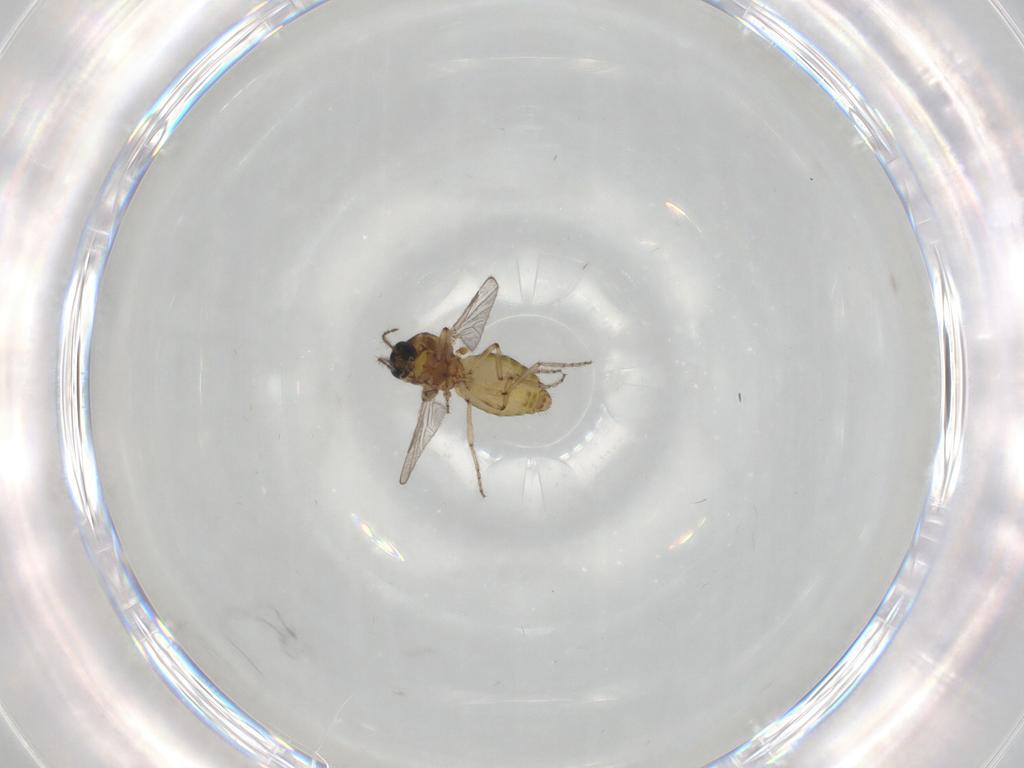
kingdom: Animalia
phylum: Arthropoda
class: Insecta
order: Diptera
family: Ceratopogonidae
